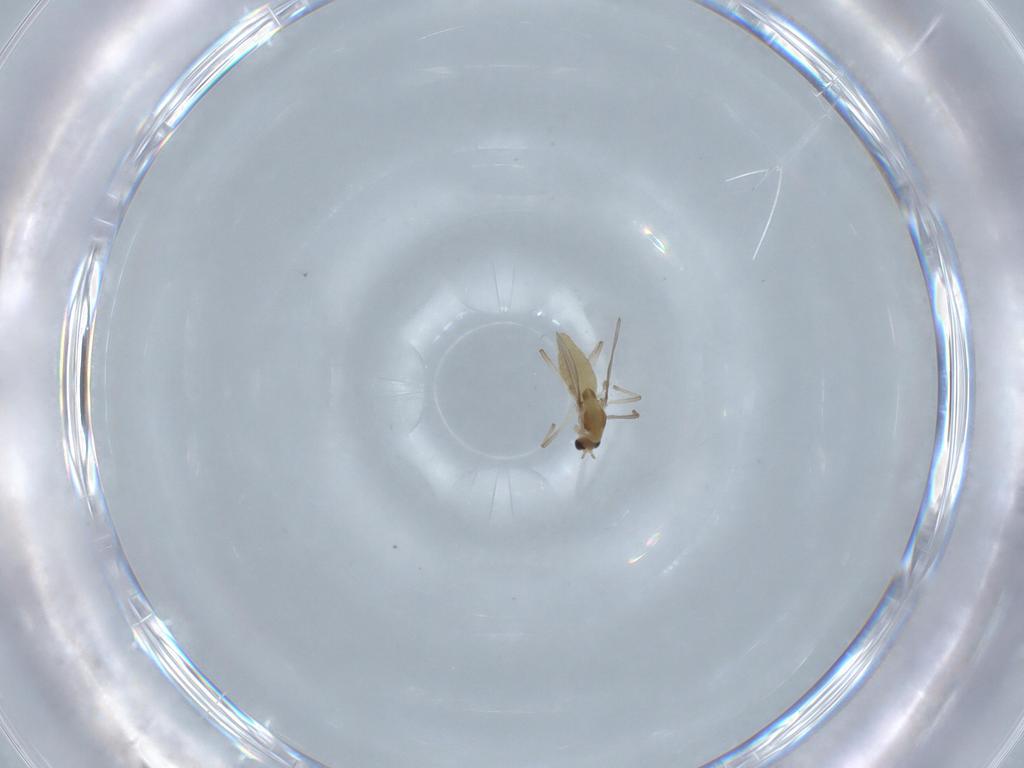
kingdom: Animalia
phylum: Arthropoda
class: Insecta
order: Diptera
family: Chironomidae
